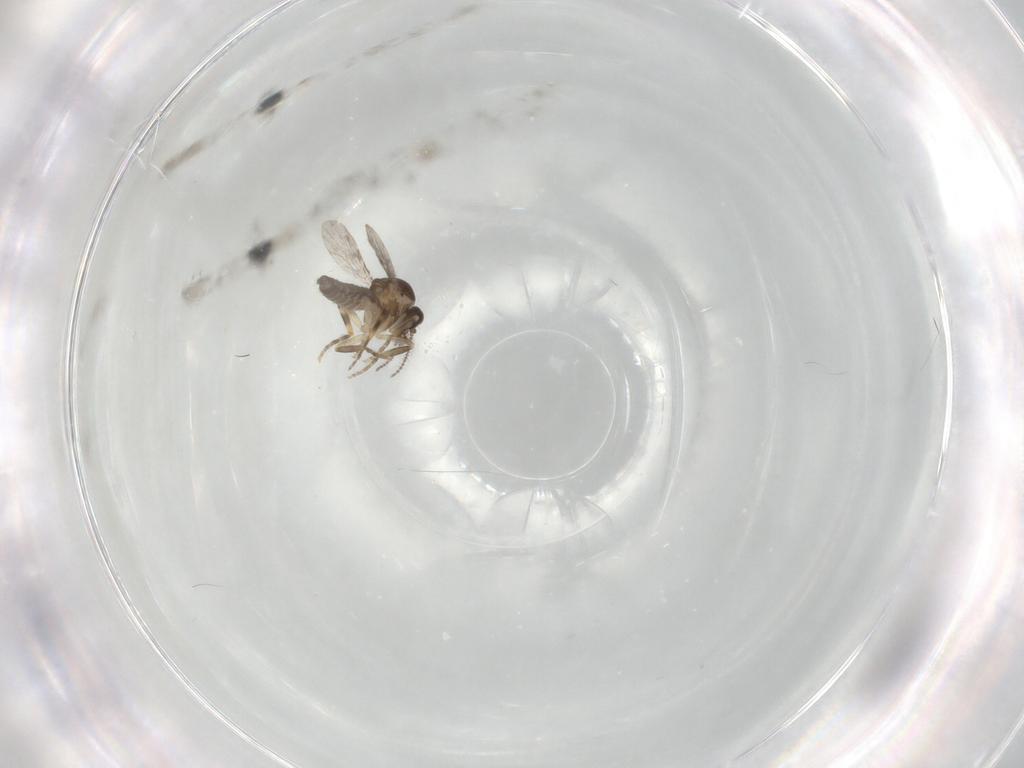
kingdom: Animalia
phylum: Arthropoda
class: Insecta
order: Diptera
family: Ceratopogonidae
